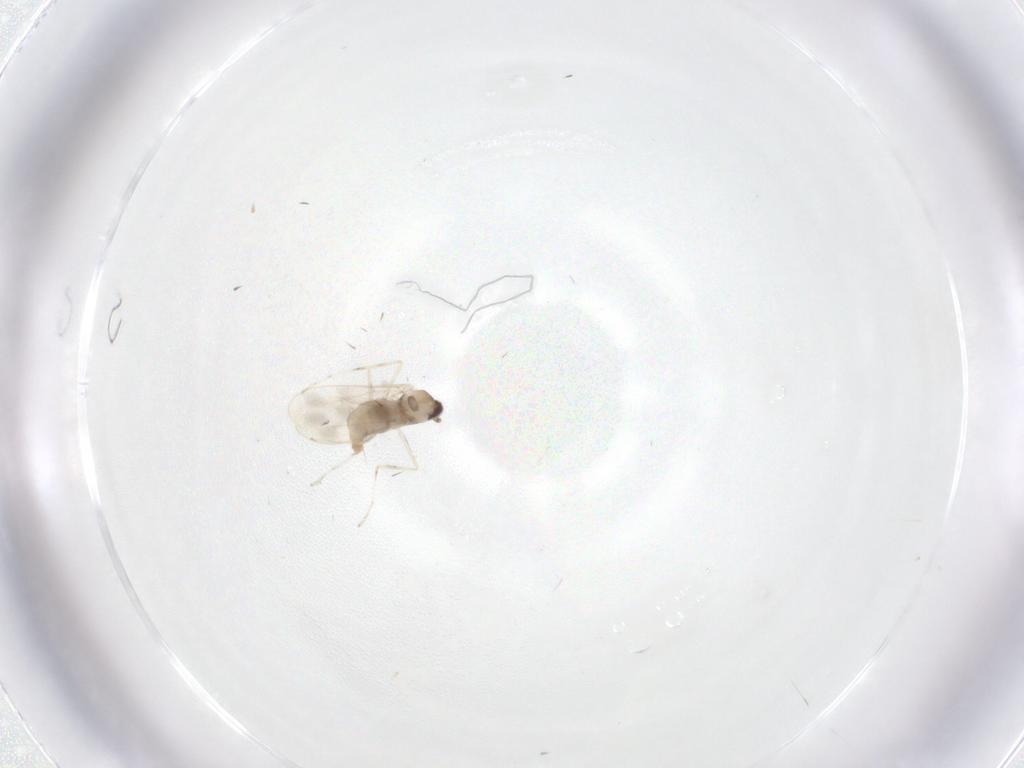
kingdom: Animalia
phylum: Arthropoda
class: Insecta
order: Diptera
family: Cecidomyiidae
